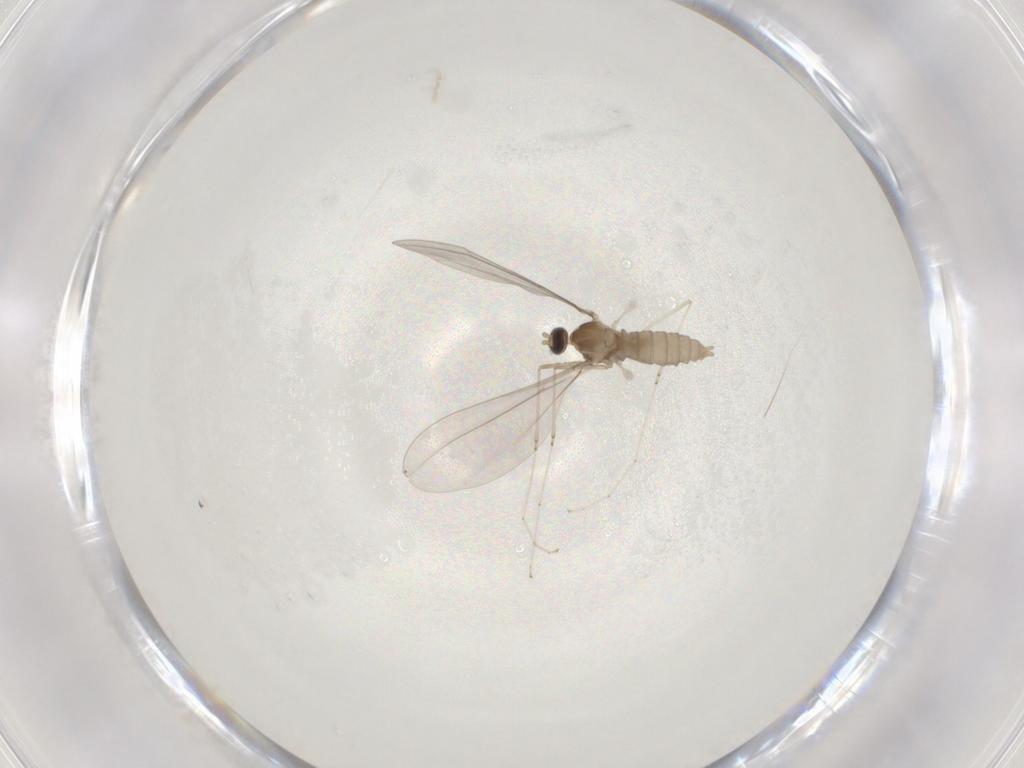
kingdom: Animalia
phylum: Arthropoda
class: Insecta
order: Diptera
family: Cecidomyiidae
